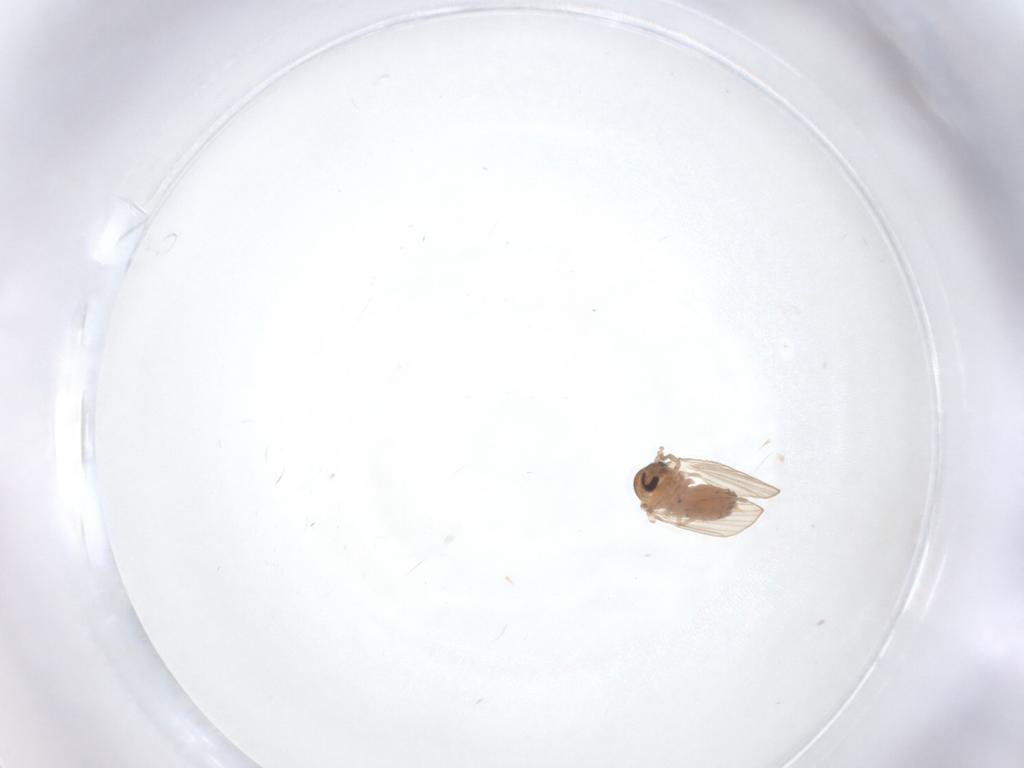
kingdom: Animalia
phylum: Arthropoda
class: Insecta
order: Diptera
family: Psychodidae
